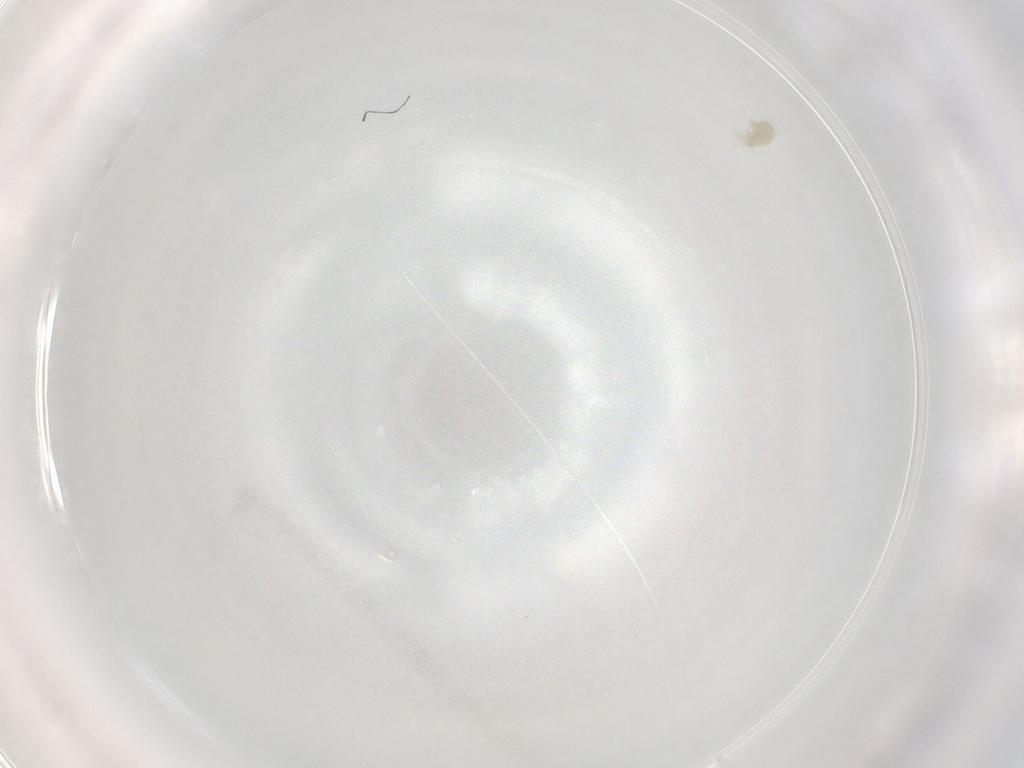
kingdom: Animalia
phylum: Arthropoda
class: Arachnida
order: Trombidiformes
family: Eupodidae
